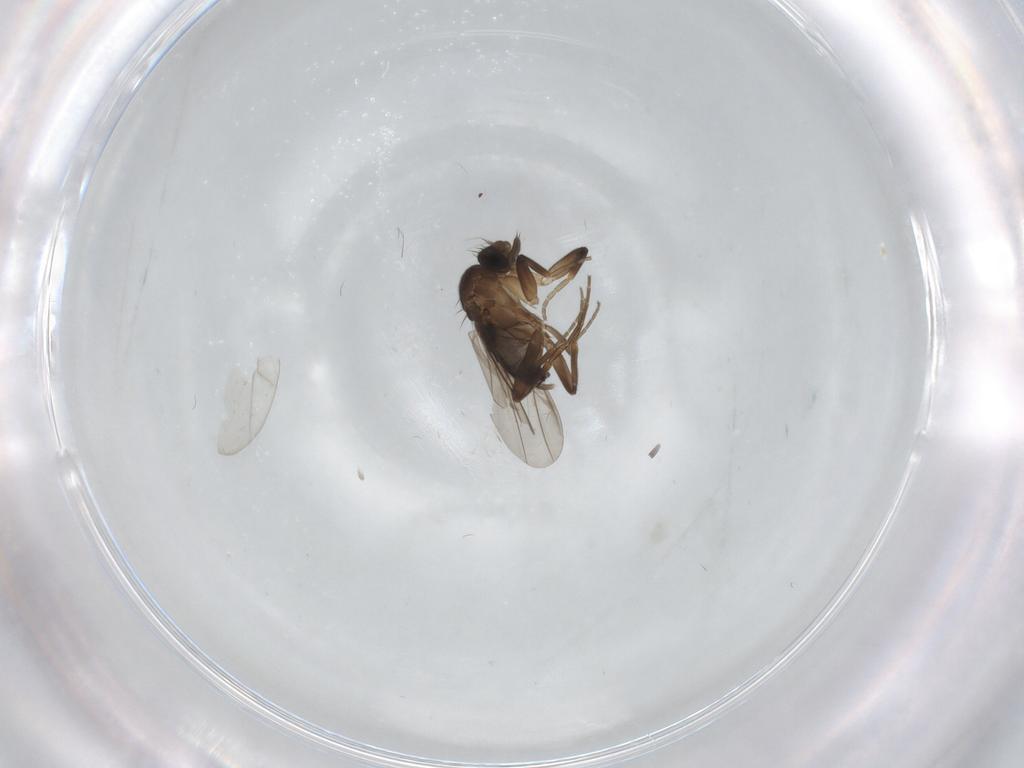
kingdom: Animalia
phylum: Arthropoda
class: Insecta
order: Diptera
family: Phoridae
